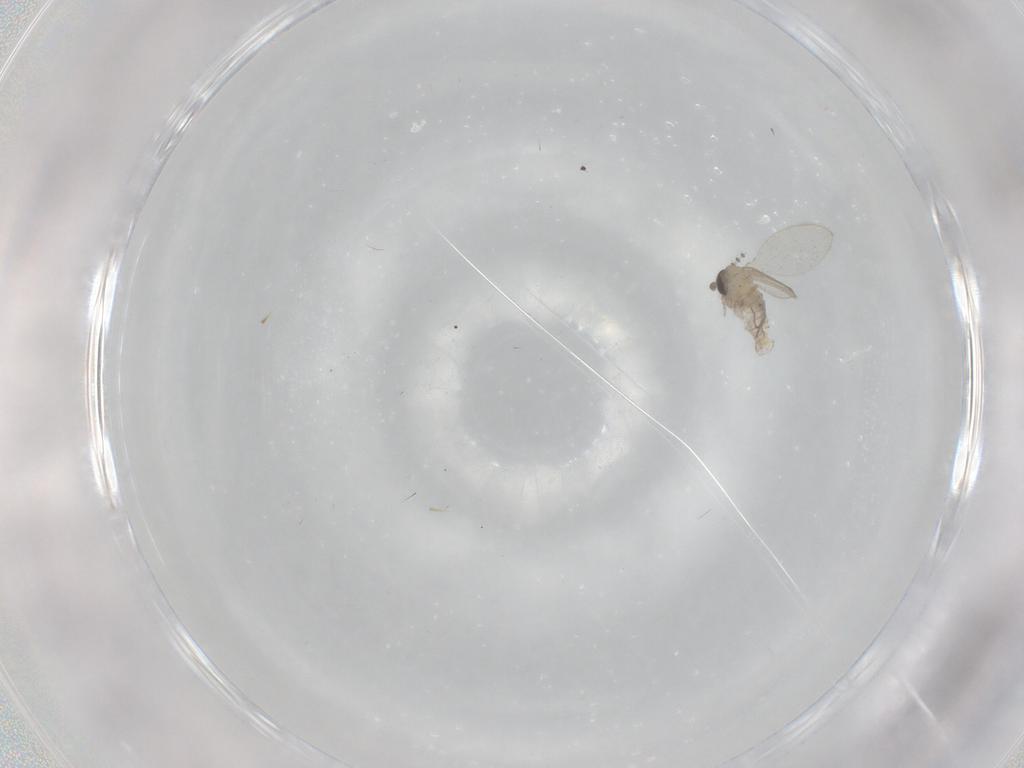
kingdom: Animalia
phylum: Arthropoda
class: Insecta
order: Diptera
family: Psychodidae
